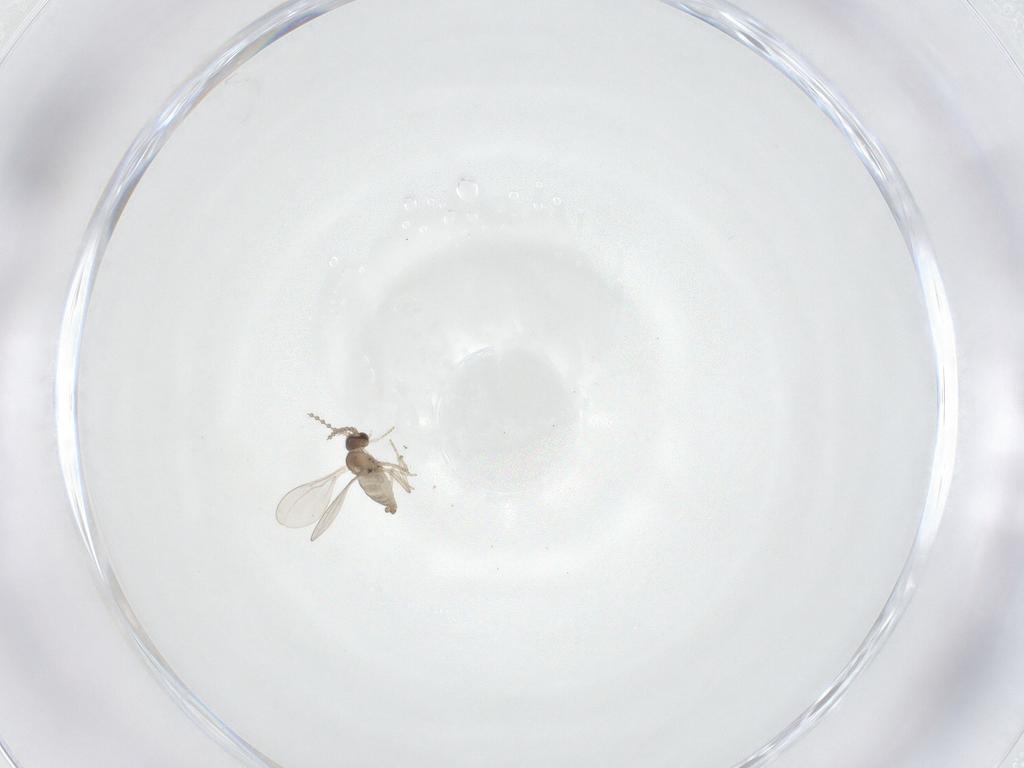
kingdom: Animalia
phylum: Arthropoda
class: Insecta
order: Diptera
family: Cecidomyiidae
